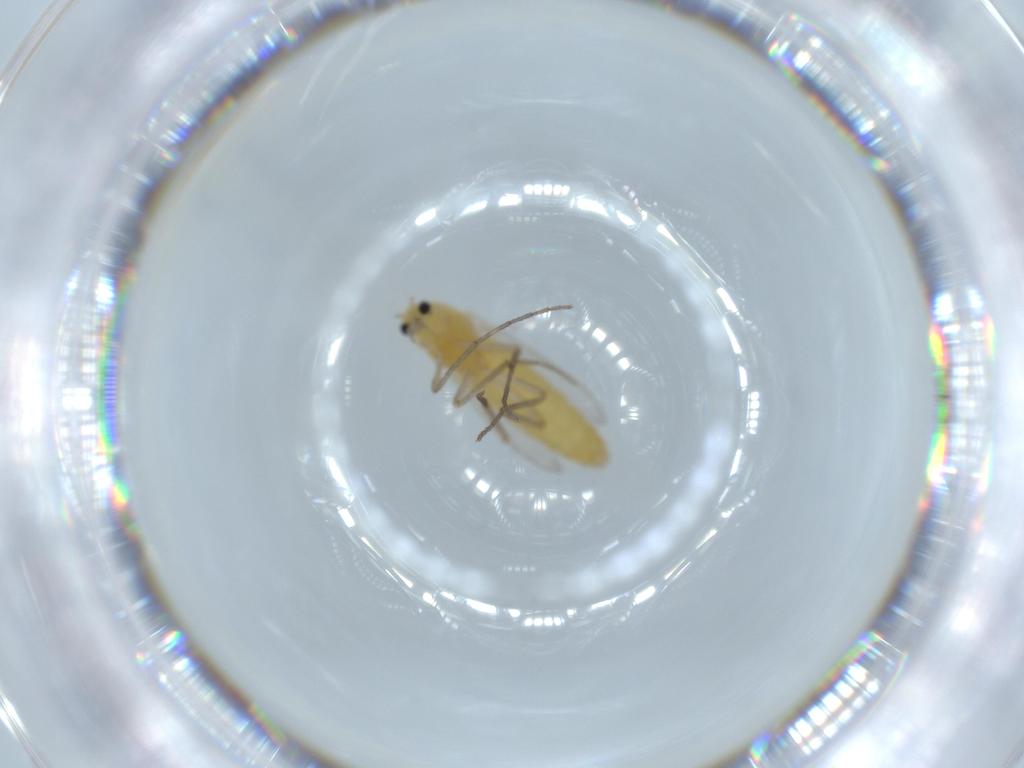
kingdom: Animalia
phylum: Arthropoda
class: Insecta
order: Diptera
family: Chironomidae
